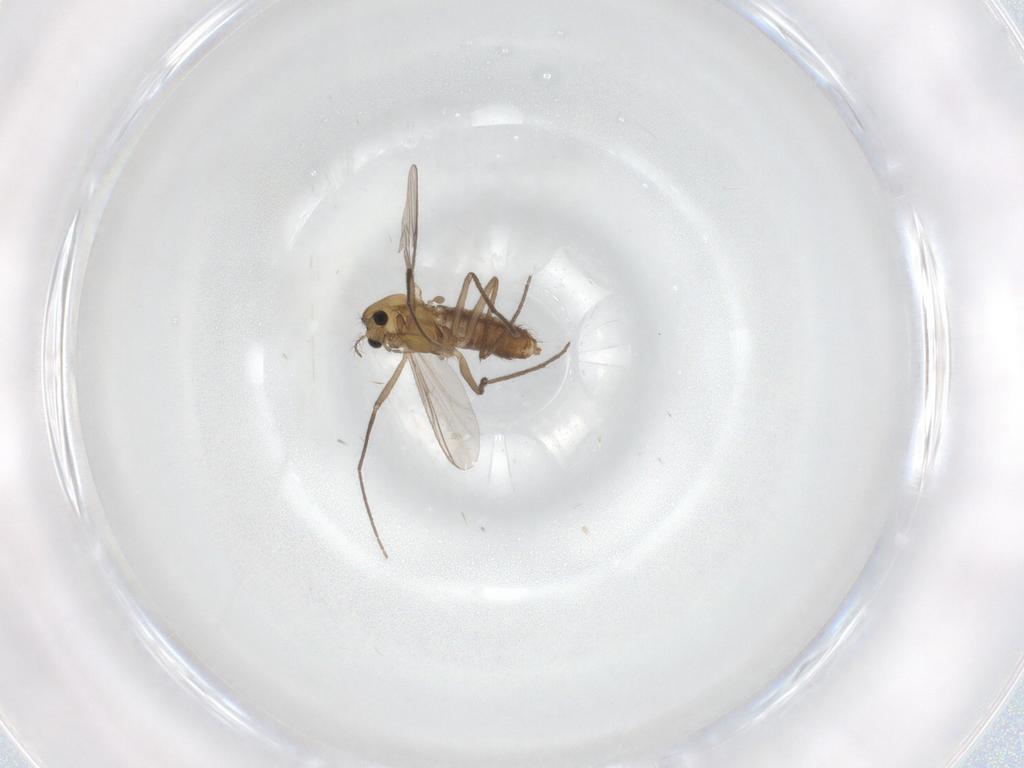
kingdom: Animalia
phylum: Arthropoda
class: Insecta
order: Diptera
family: Chironomidae
